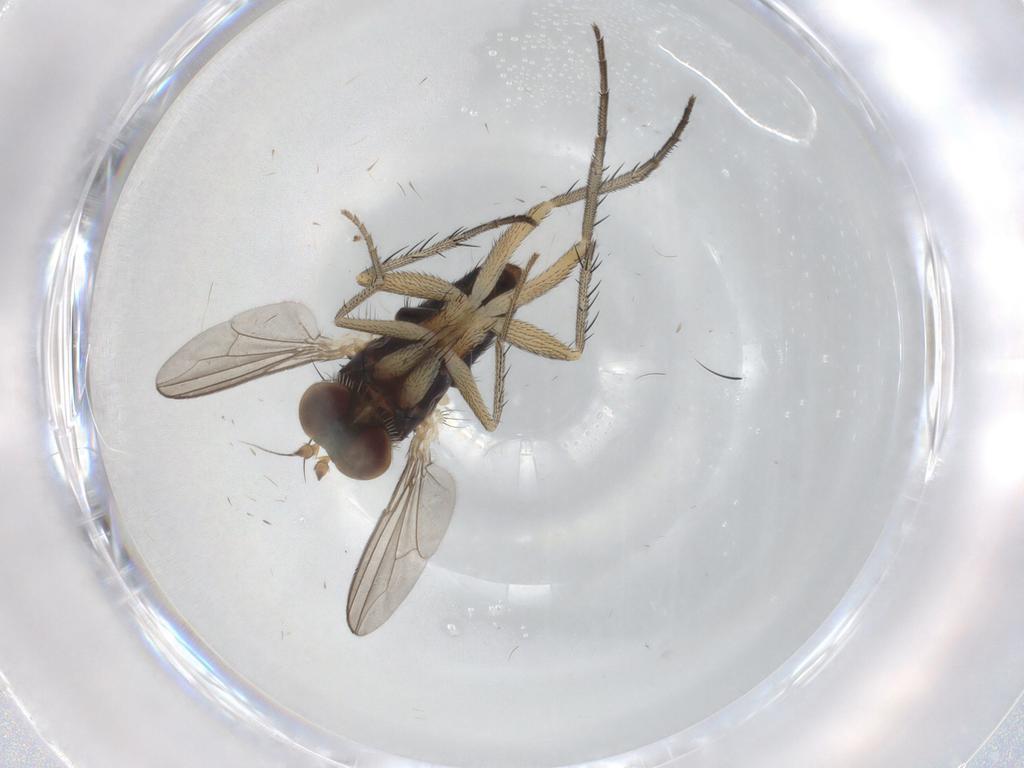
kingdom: Animalia
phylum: Arthropoda
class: Insecta
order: Diptera
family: Dolichopodidae
